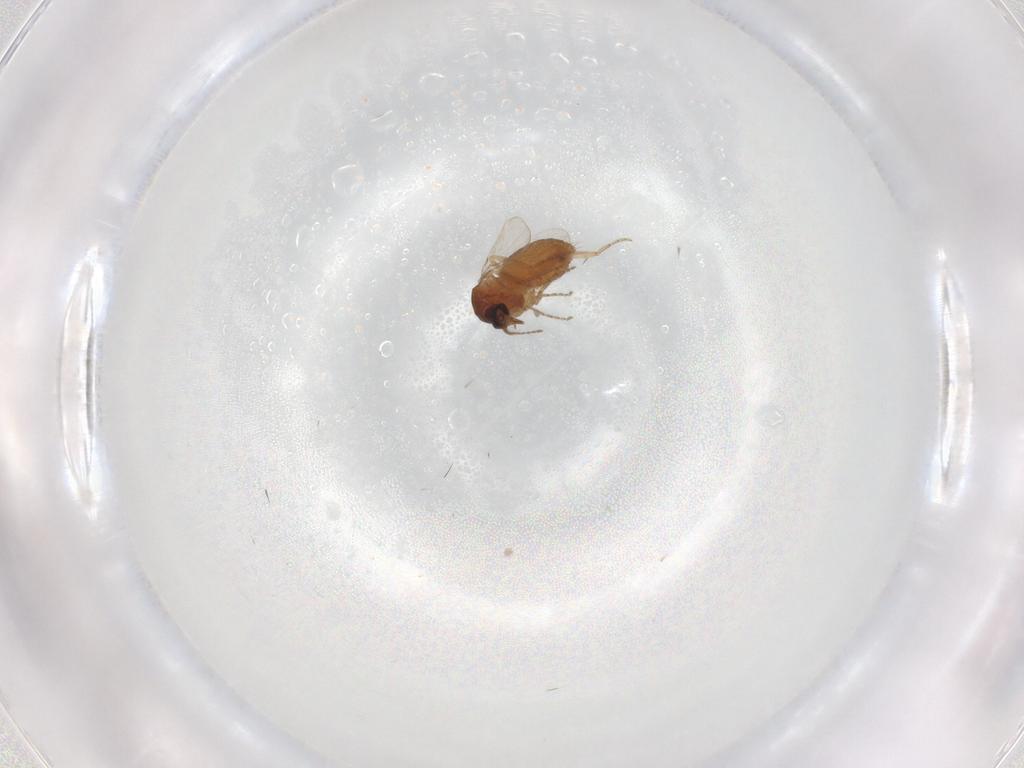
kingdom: Animalia
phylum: Arthropoda
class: Insecta
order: Diptera
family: Ceratopogonidae
